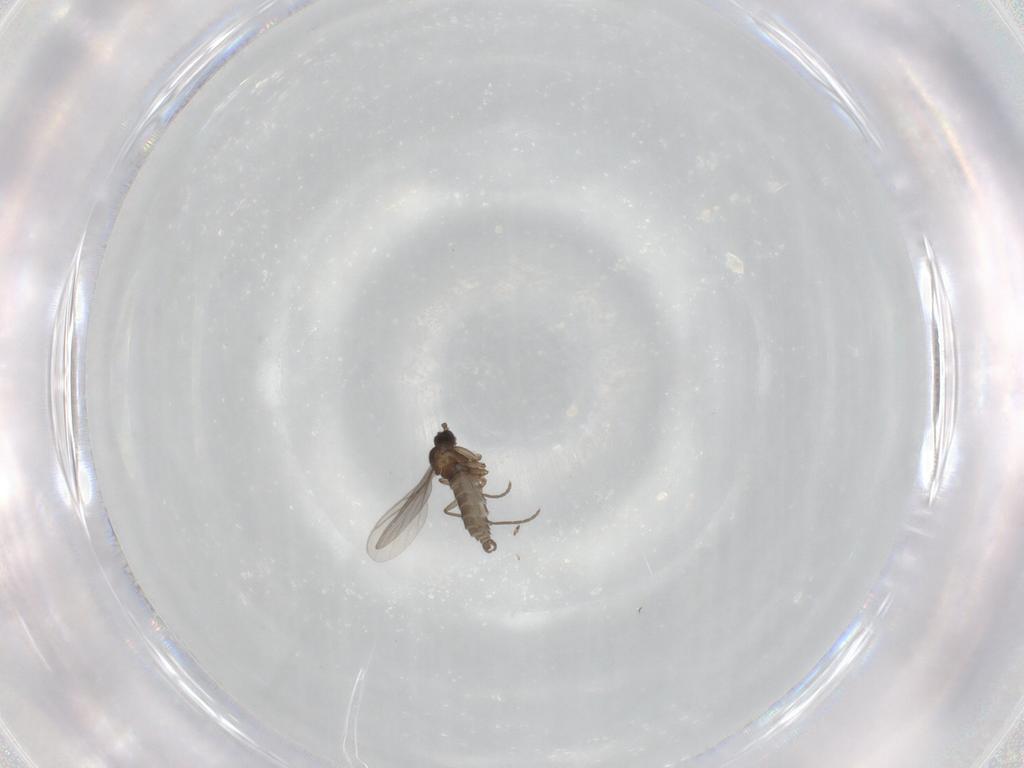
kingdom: Animalia
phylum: Arthropoda
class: Insecta
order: Diptera
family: Sciaridae
